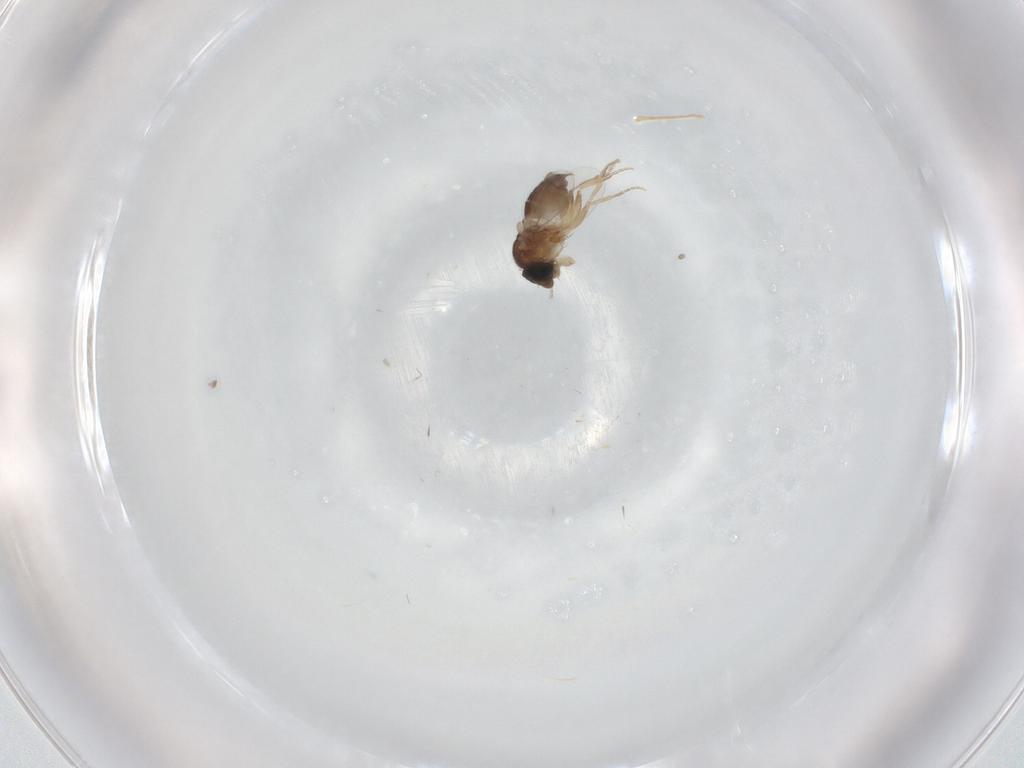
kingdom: Animalia
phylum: Arthropoda
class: Insecta
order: Diptera
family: Phoridae
